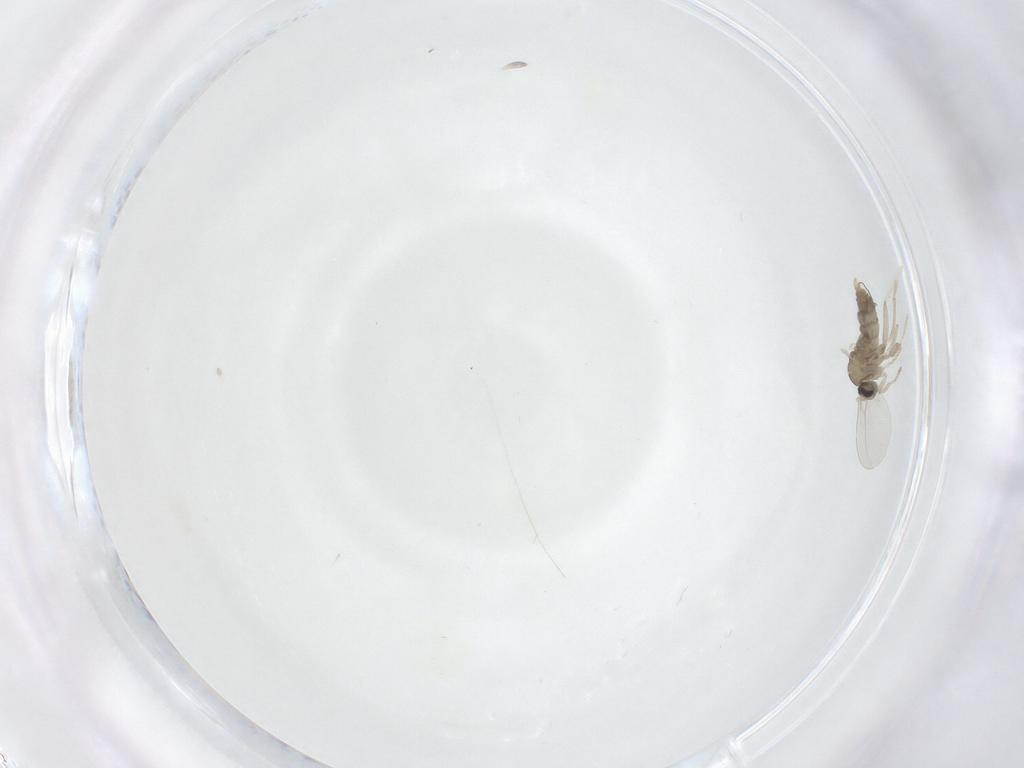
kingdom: Animalia
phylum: Arthropoda
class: Insecta
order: Diptera
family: Cecidomyiidae
